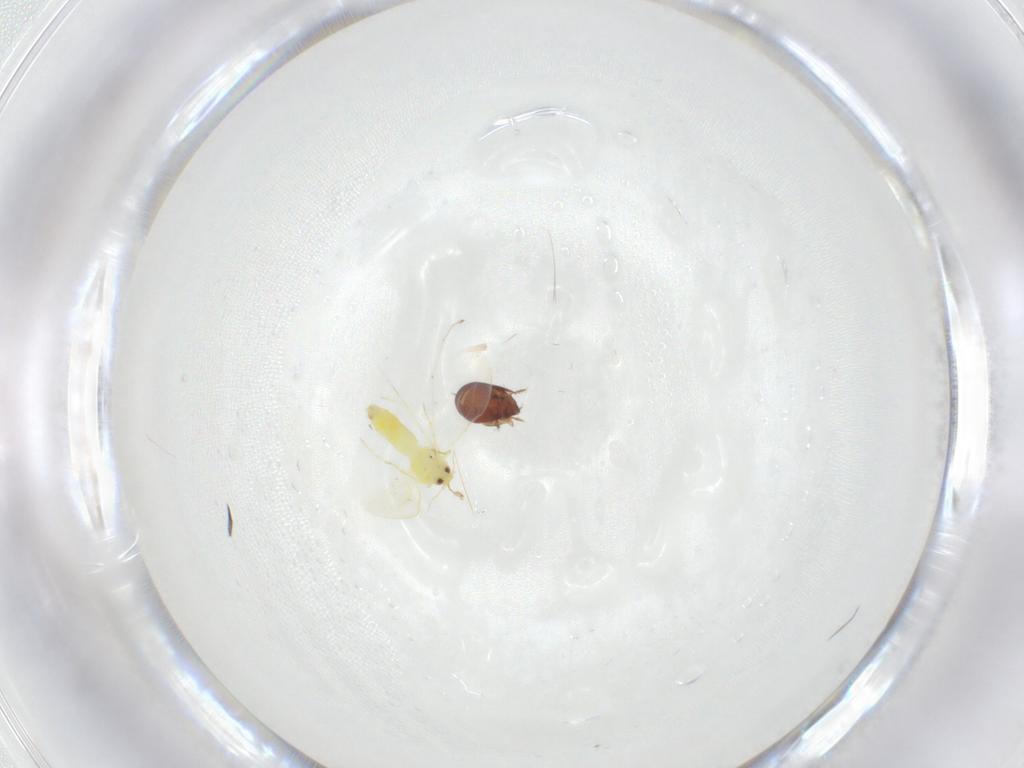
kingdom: Animalia
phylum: Arthropoda
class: Insecta
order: Hemiptera
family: Aleyrodidae
